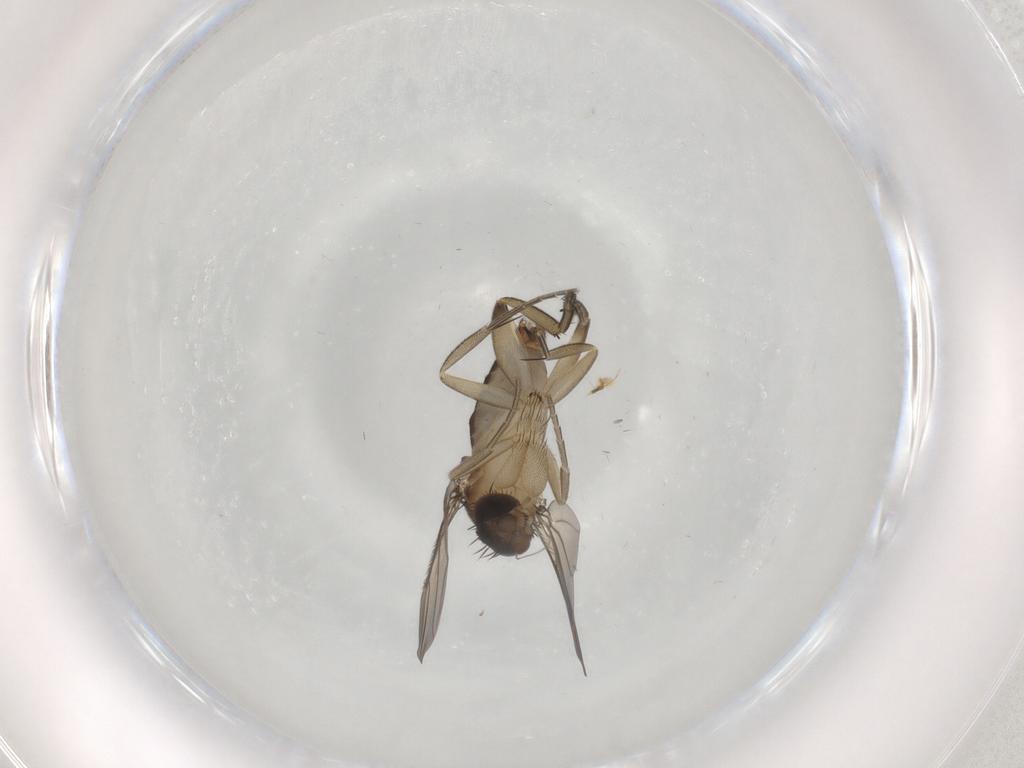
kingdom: Animalia
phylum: Arthropoda
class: Insecta
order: Diptera
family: Phoridae
